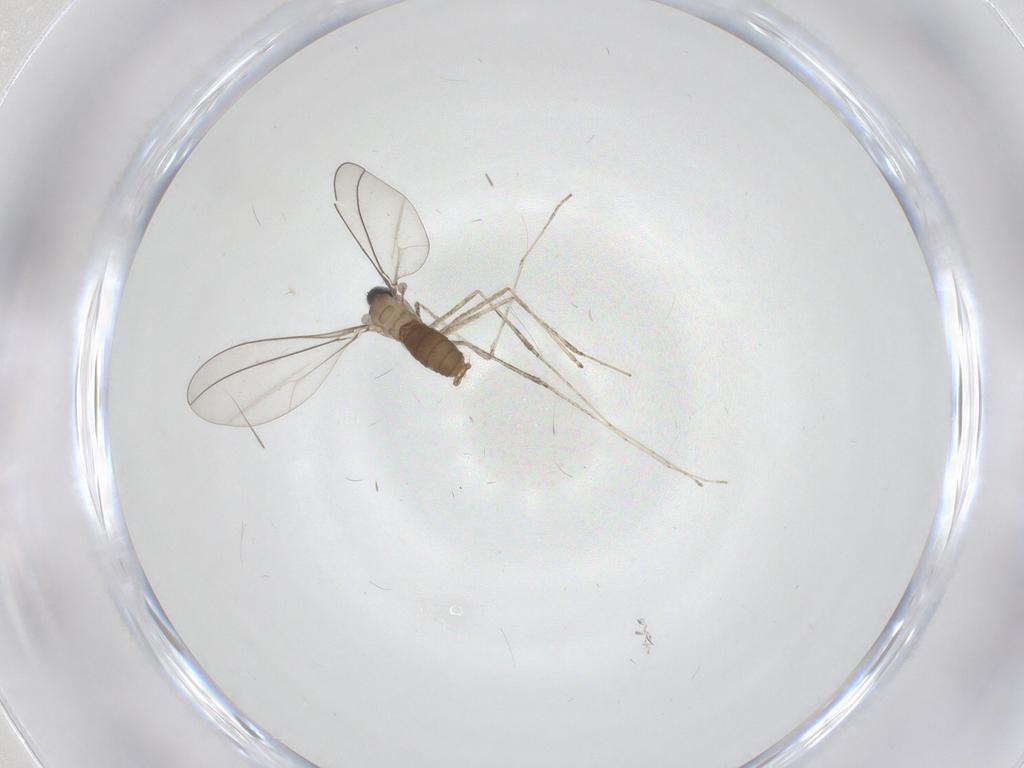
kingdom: Animalia
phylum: Arthropoda
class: Insecta
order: Diptera
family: Cecidomyiidae
